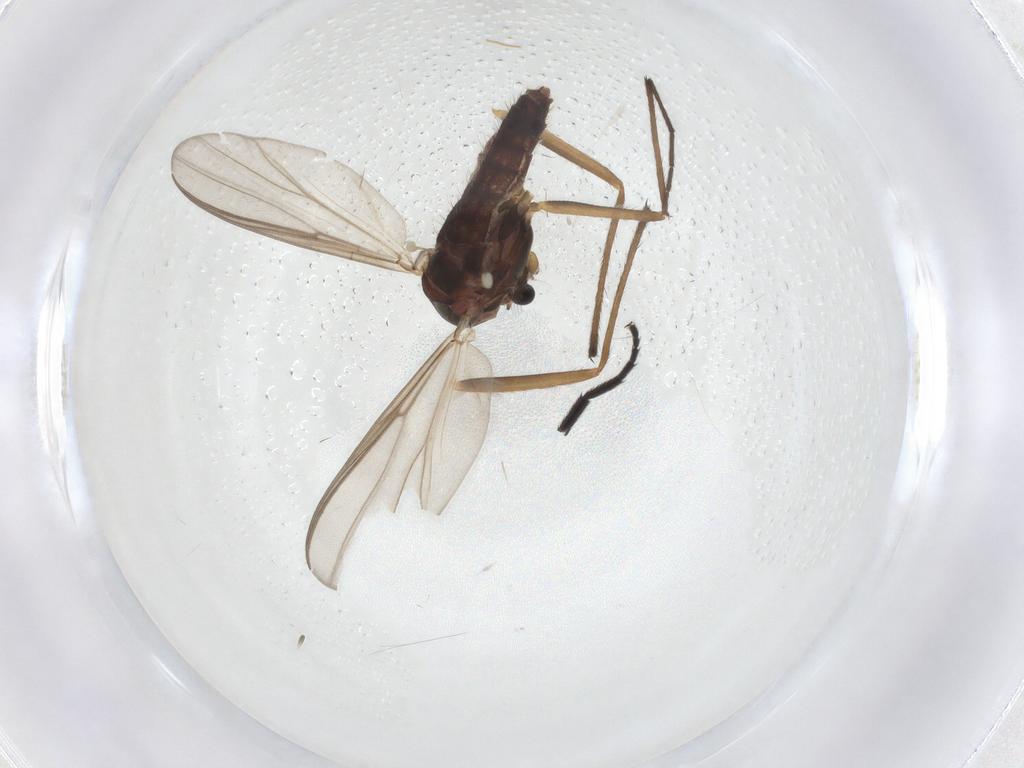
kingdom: Animalia
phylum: Arthropoda
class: Insecta
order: Diptera
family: Chironomidae
